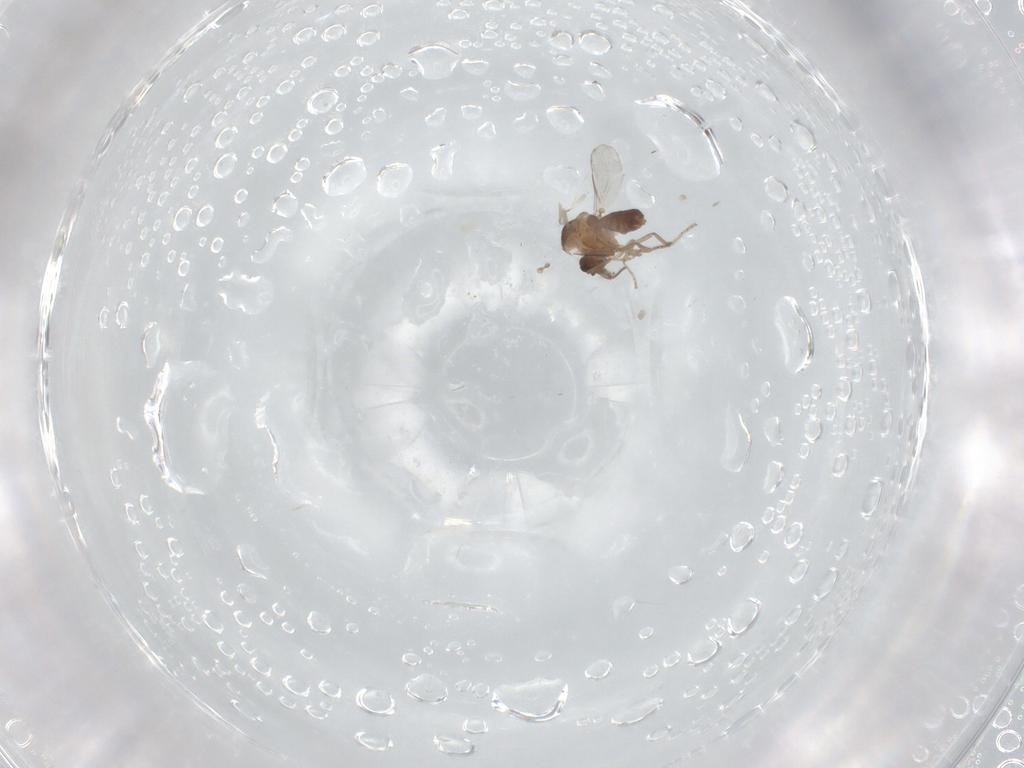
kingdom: Animalia
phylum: Arthropoda
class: Insecta
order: Diptera
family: Ceratopogonidae
